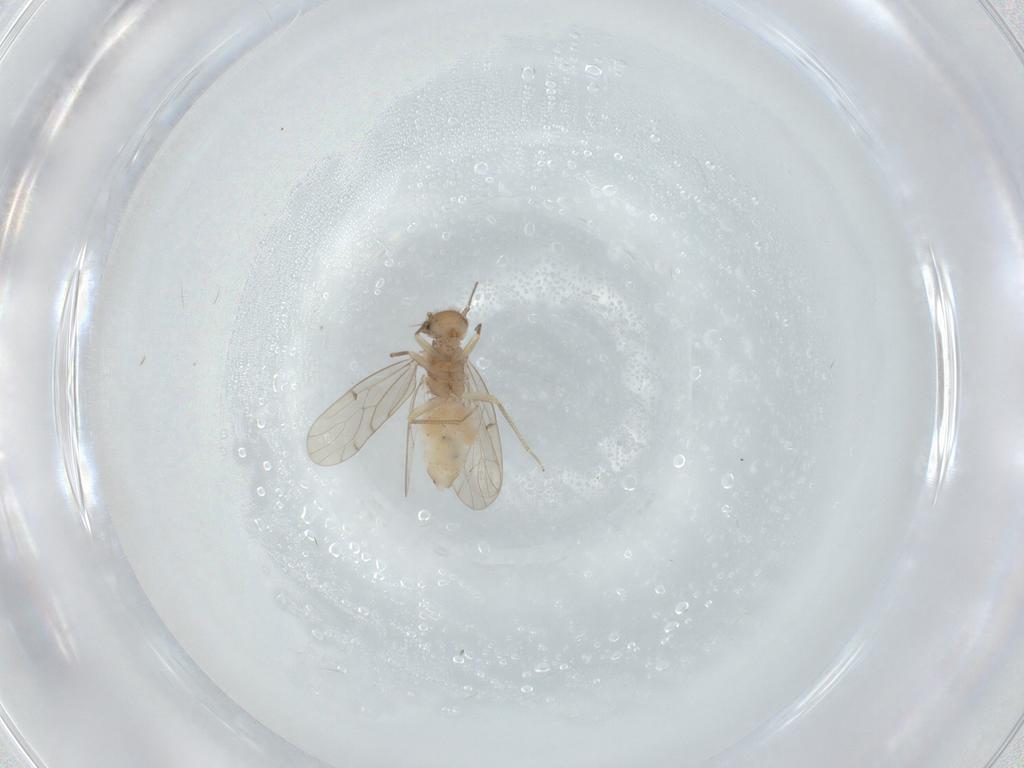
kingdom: Animalia
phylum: Arthropoda
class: Insecta
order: Psocodea
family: Ectopsocidae
